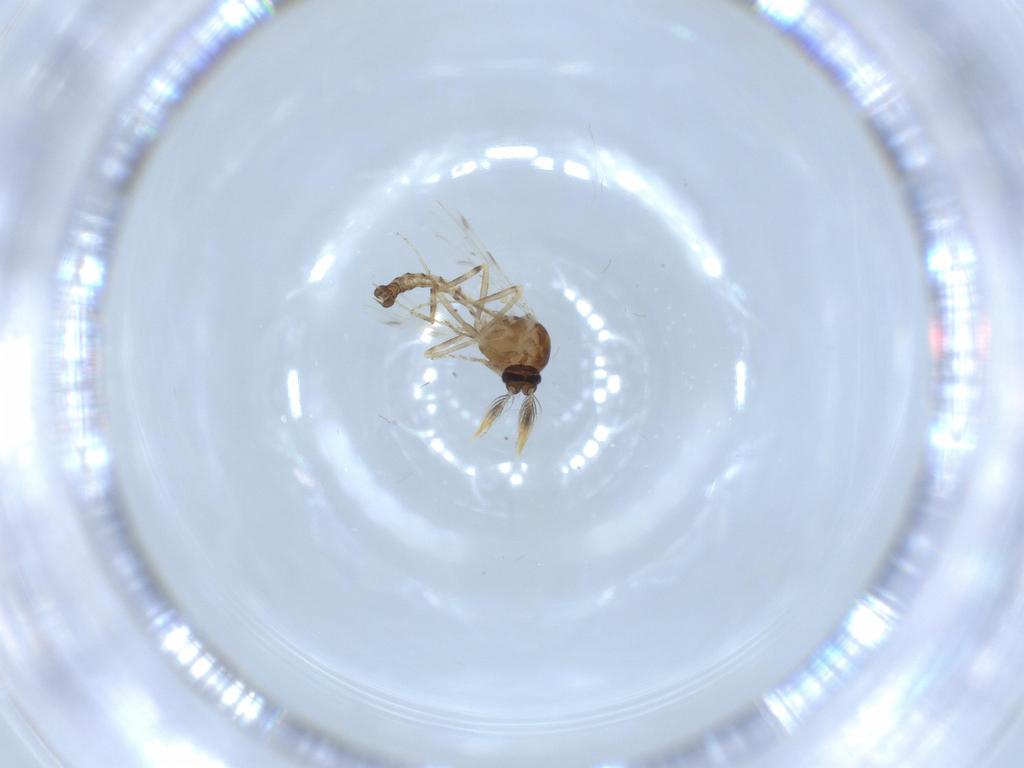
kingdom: Animalia
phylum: Arthropoda
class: Insecta
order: Diptera
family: Ceratopogonidae
